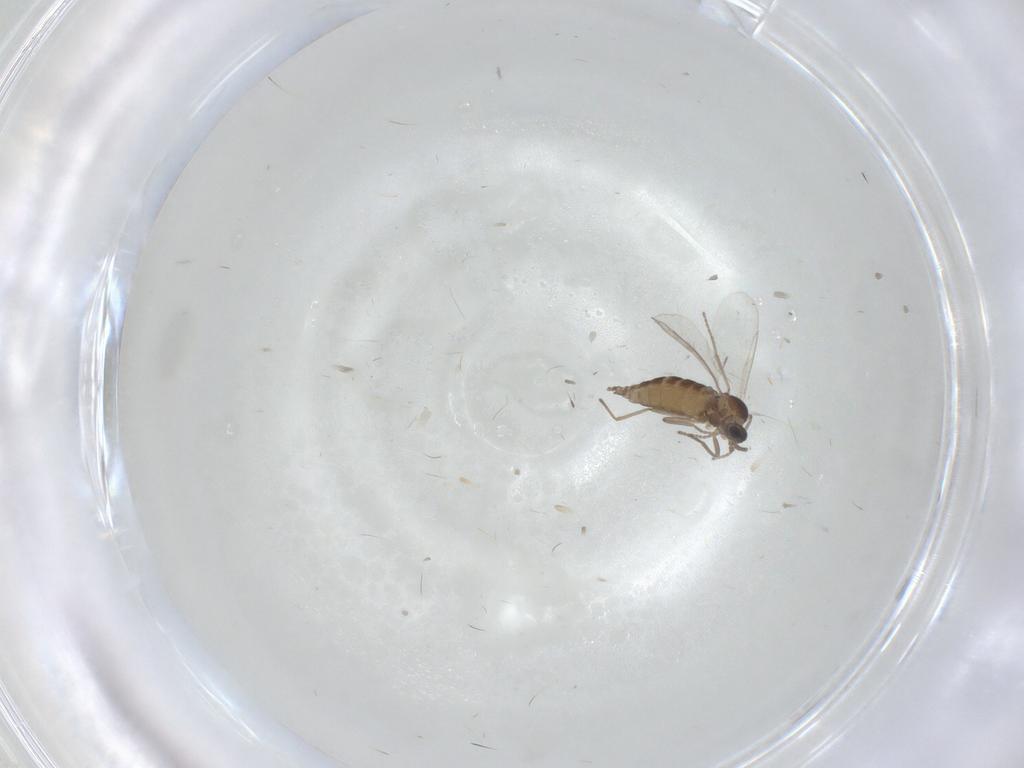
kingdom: Animalia
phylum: Arthropoda
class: Insecta
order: Diptera
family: Cecidomyiidae
